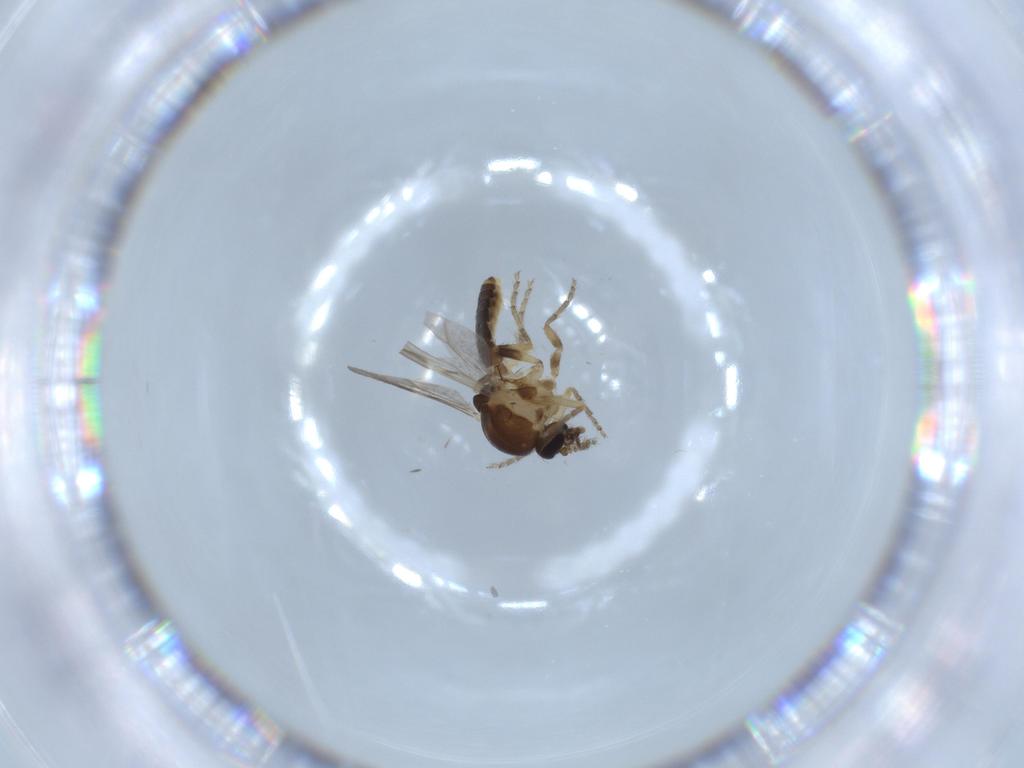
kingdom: Animalia
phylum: Arthropoda
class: Insecta
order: Diptera
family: Ceratopogonidae
